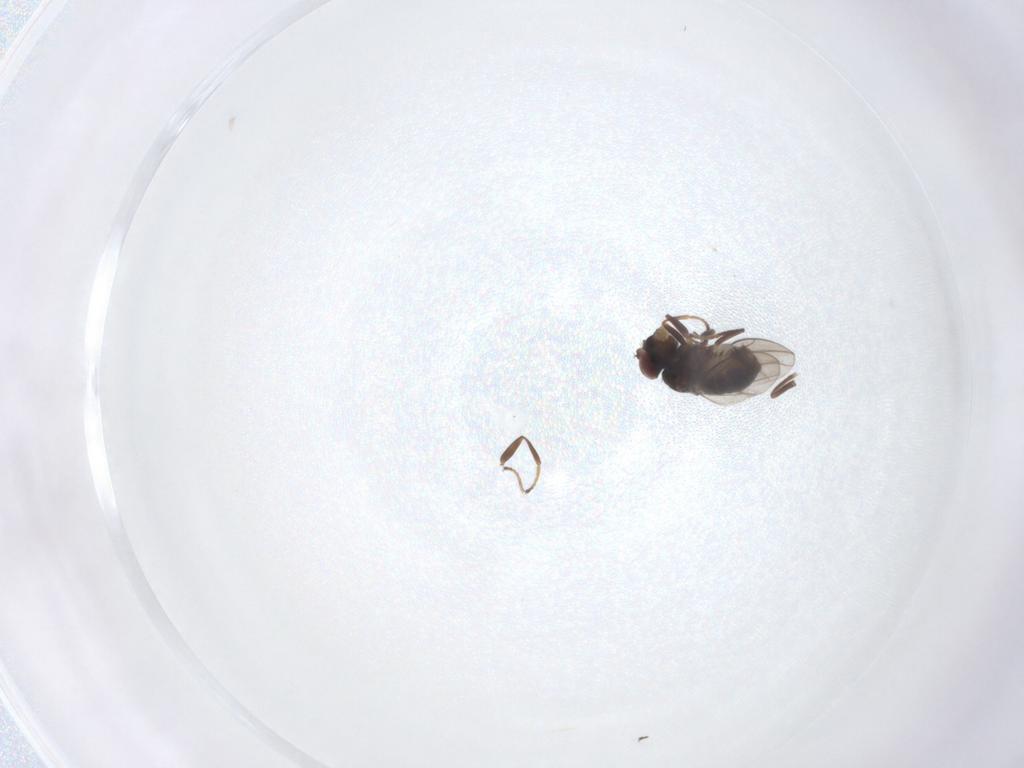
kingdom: Animalia
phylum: Arthropoda
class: Insecta
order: Diptera
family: Ephydridae
